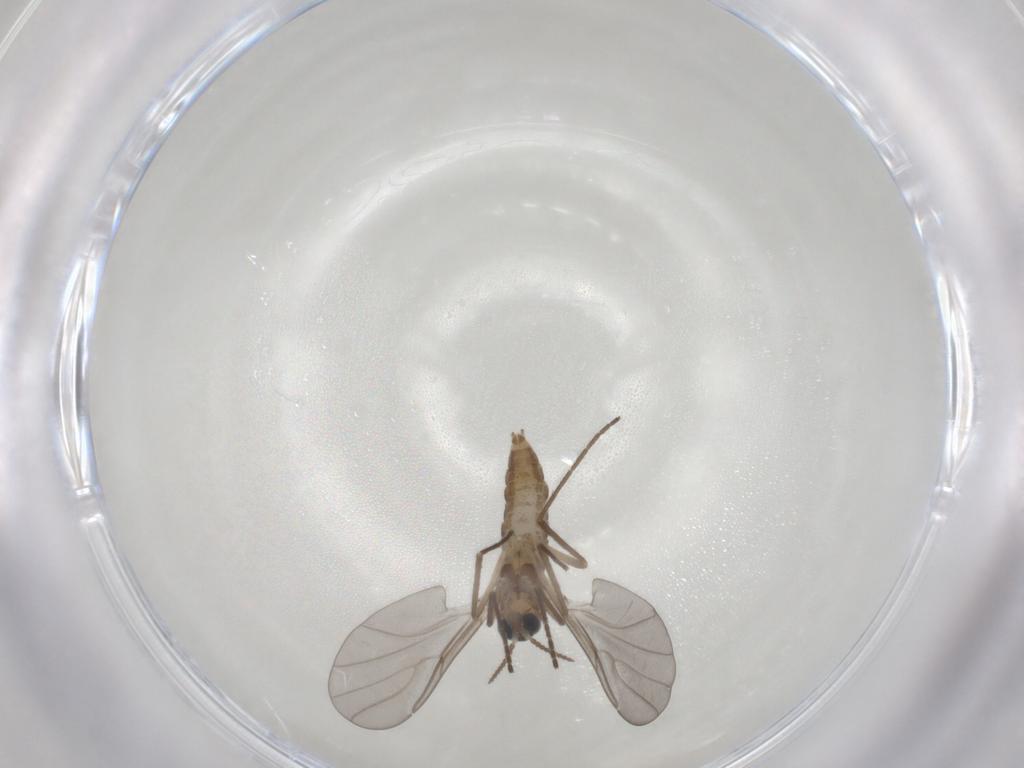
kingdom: Animalia
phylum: Arthropoda
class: Insecta
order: Diptera
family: Cecidomyiidae
